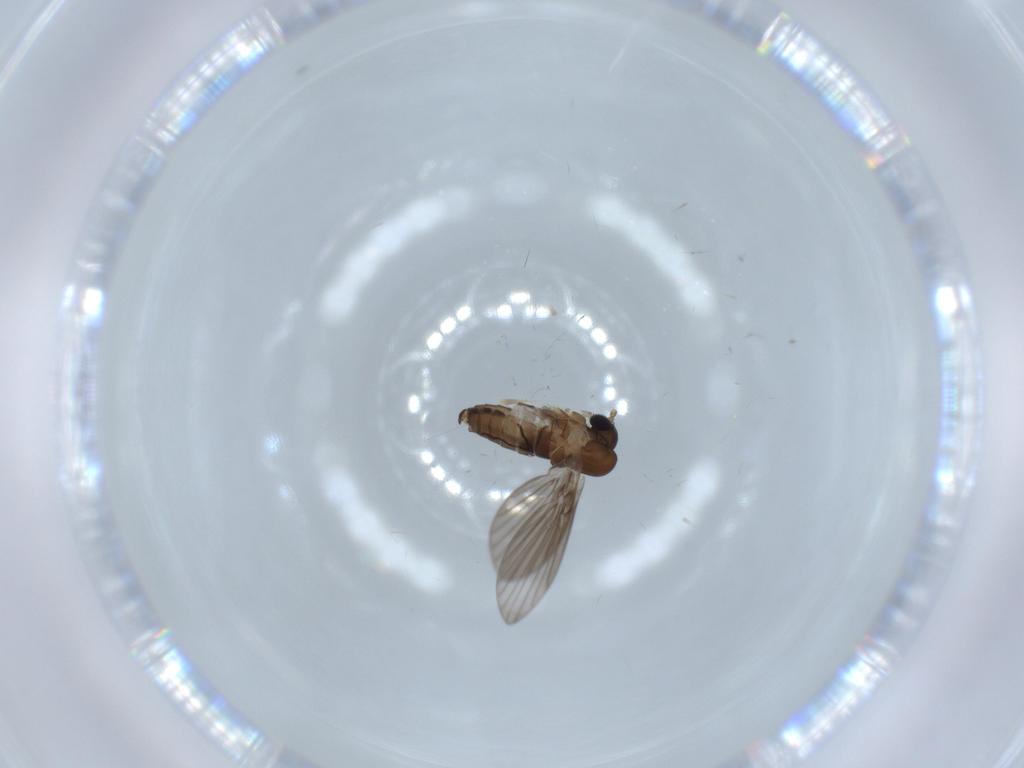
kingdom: Animalia
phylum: Arthropoda
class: Insecta
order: Diptera
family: Psychodidae
